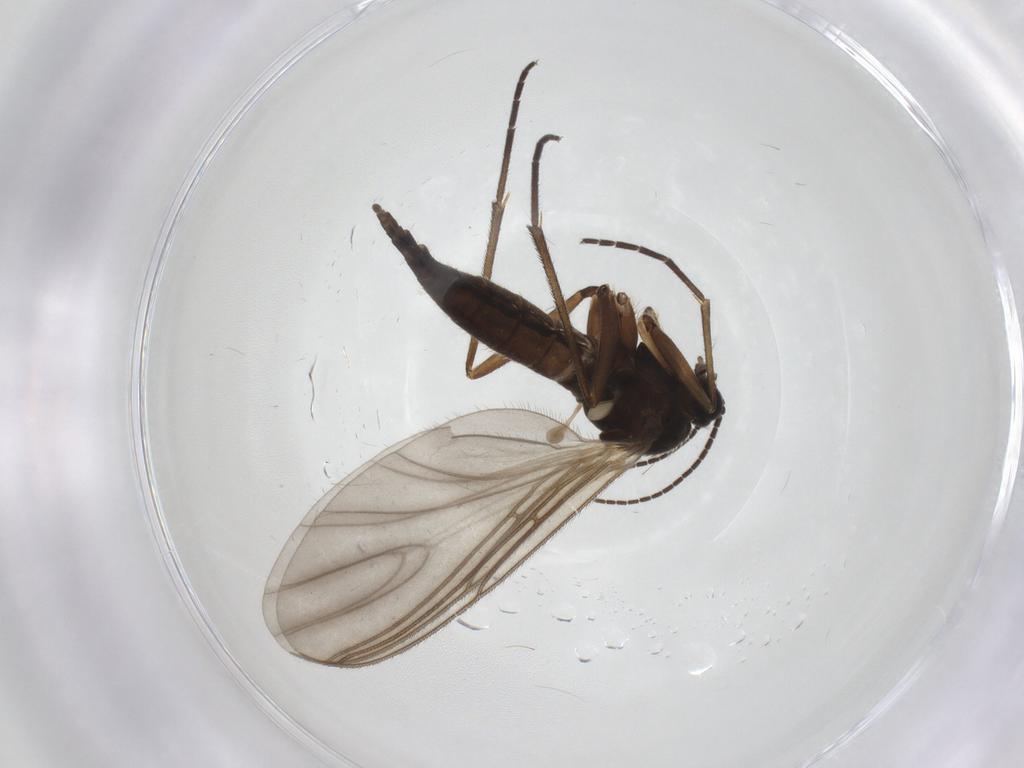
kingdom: Animalia
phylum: Arthropoda
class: Insecta
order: Diptera
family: Sciaridae
